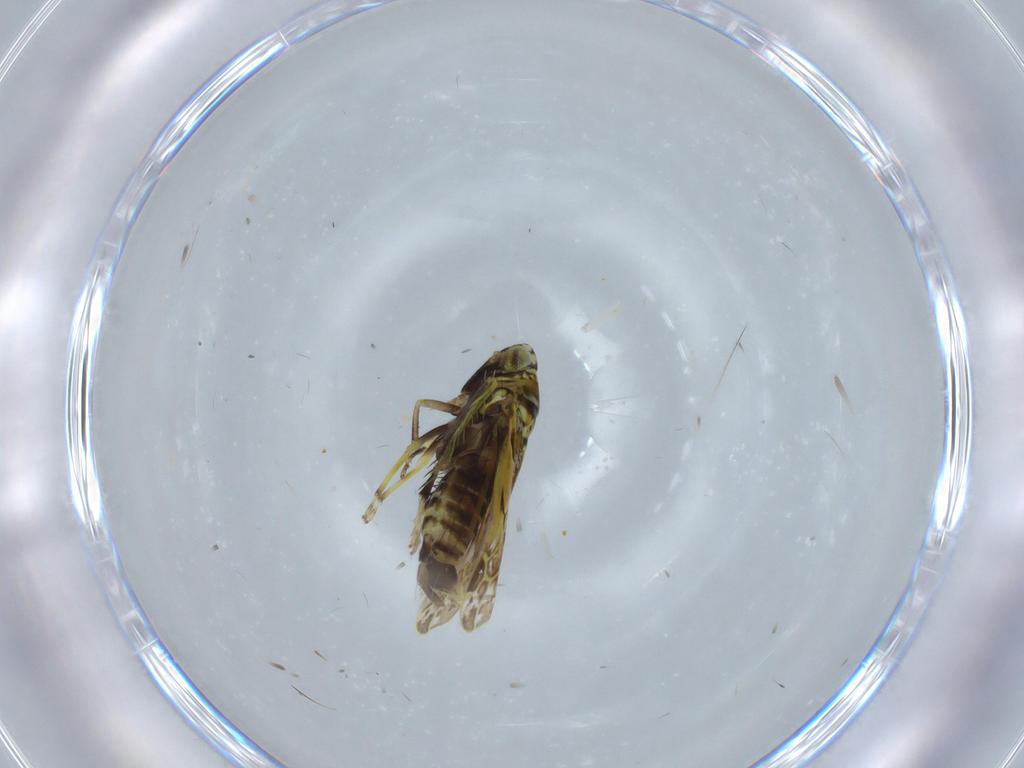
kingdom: Animalia
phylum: Arthropoda
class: Insecta
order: Hemiptera
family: Cicadellidae
